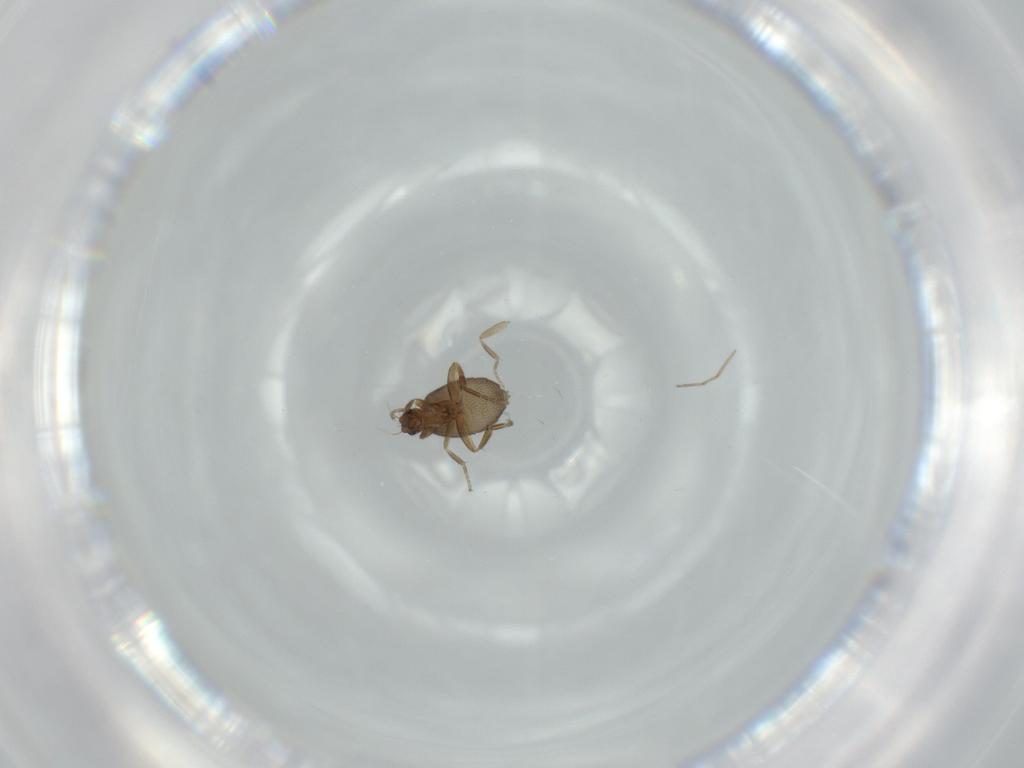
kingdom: Animalia
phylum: Arthropoda
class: Insecta
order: Diptera
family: Phoridae
